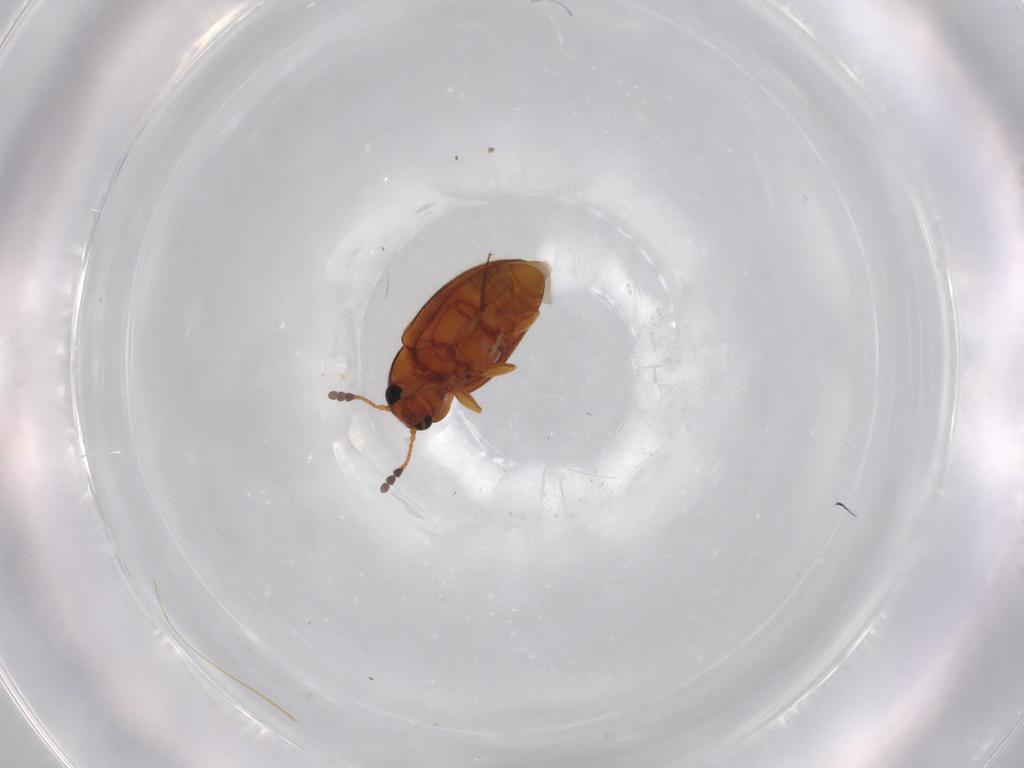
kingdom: Animalia
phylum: Arthropoda
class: Insecta
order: Coleoptera
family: Erotylidae
